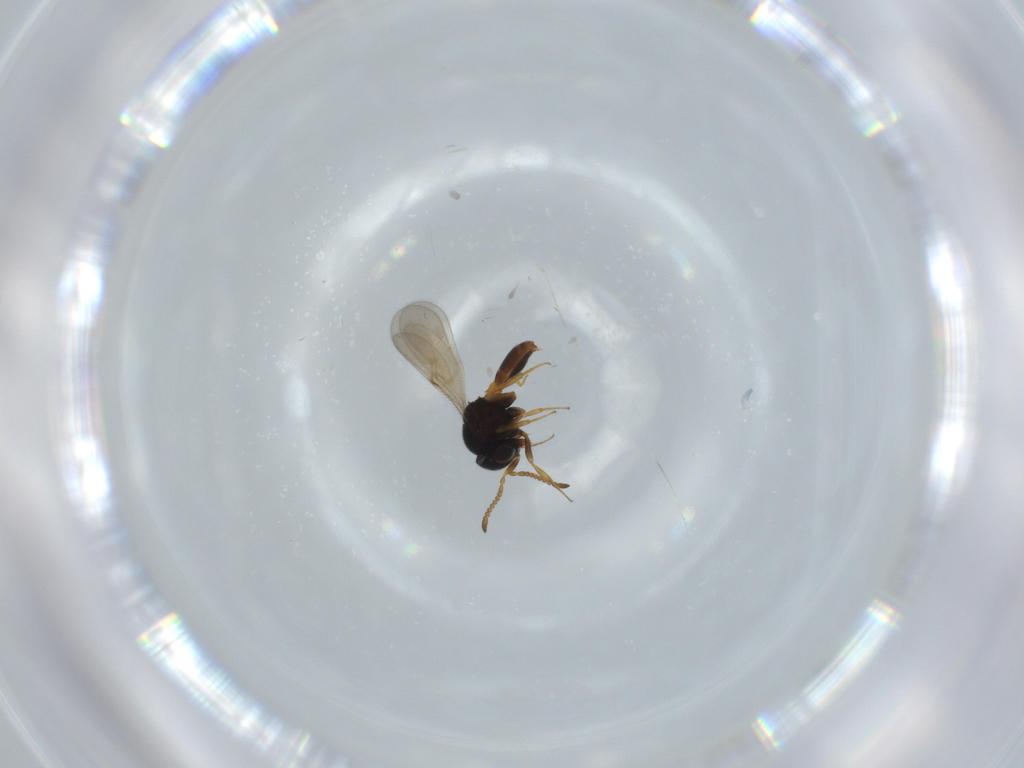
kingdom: Animalia
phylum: Arthropoda
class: Insecta
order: Hymenoptera
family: Scelionidae
